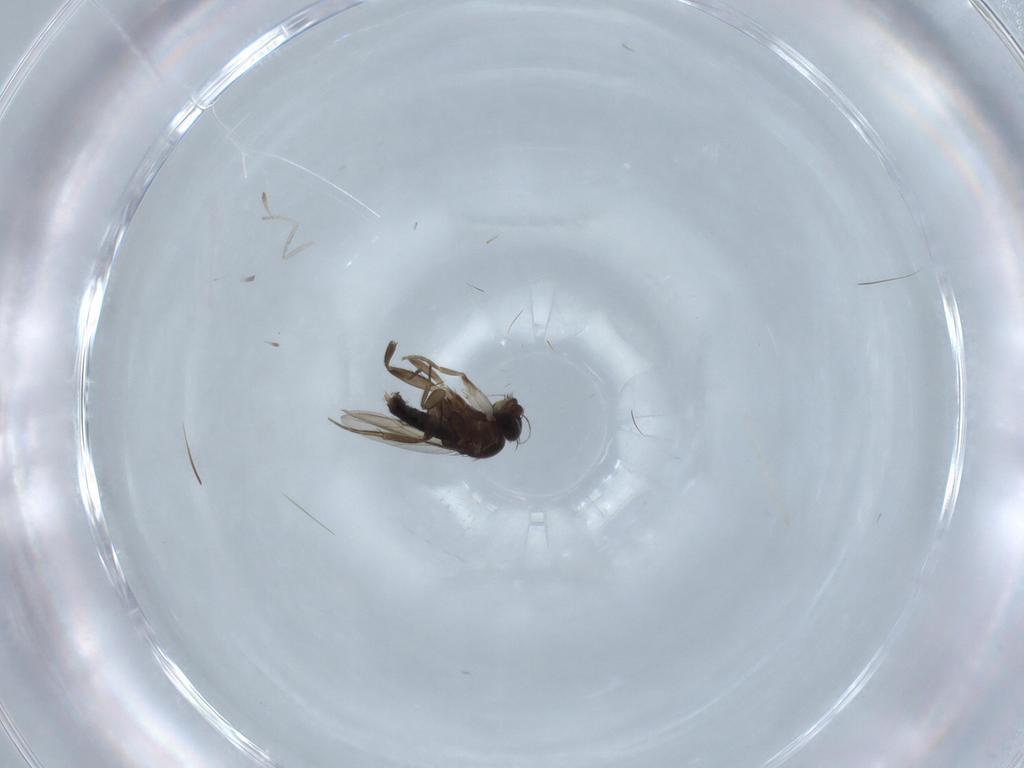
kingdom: Animalia
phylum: Arthropoda
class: Insecta
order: Diptera
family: Phoridae
